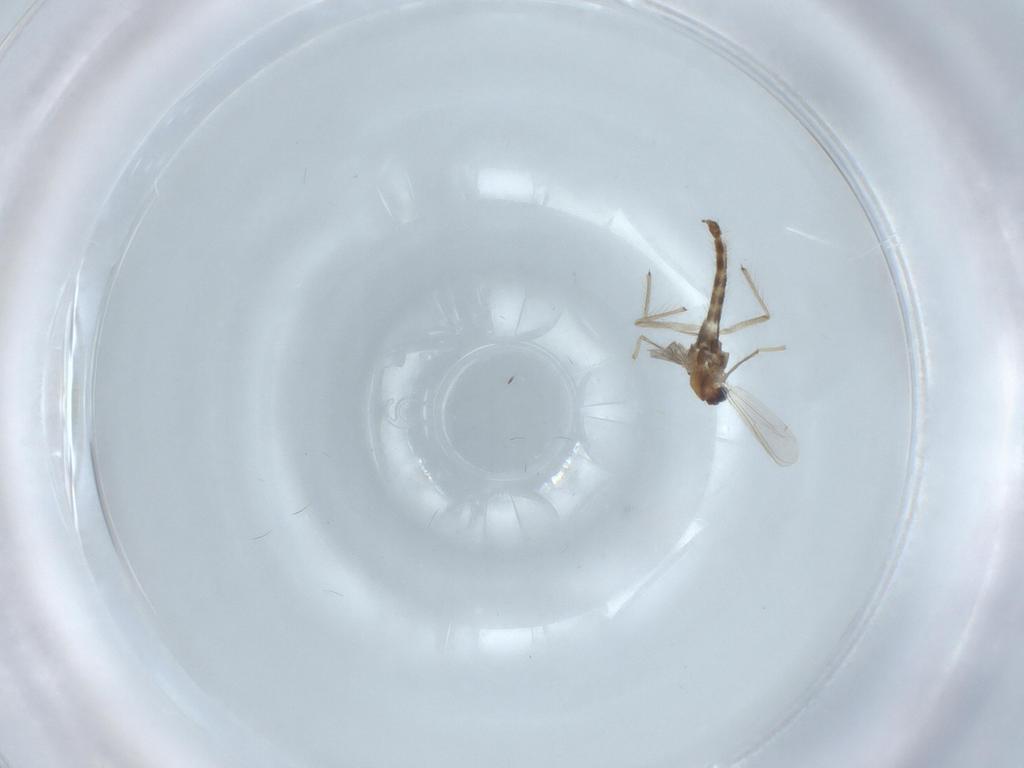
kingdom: Animalia
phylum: Arthropoda
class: Insecta
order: Diptera
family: Chironomidae
